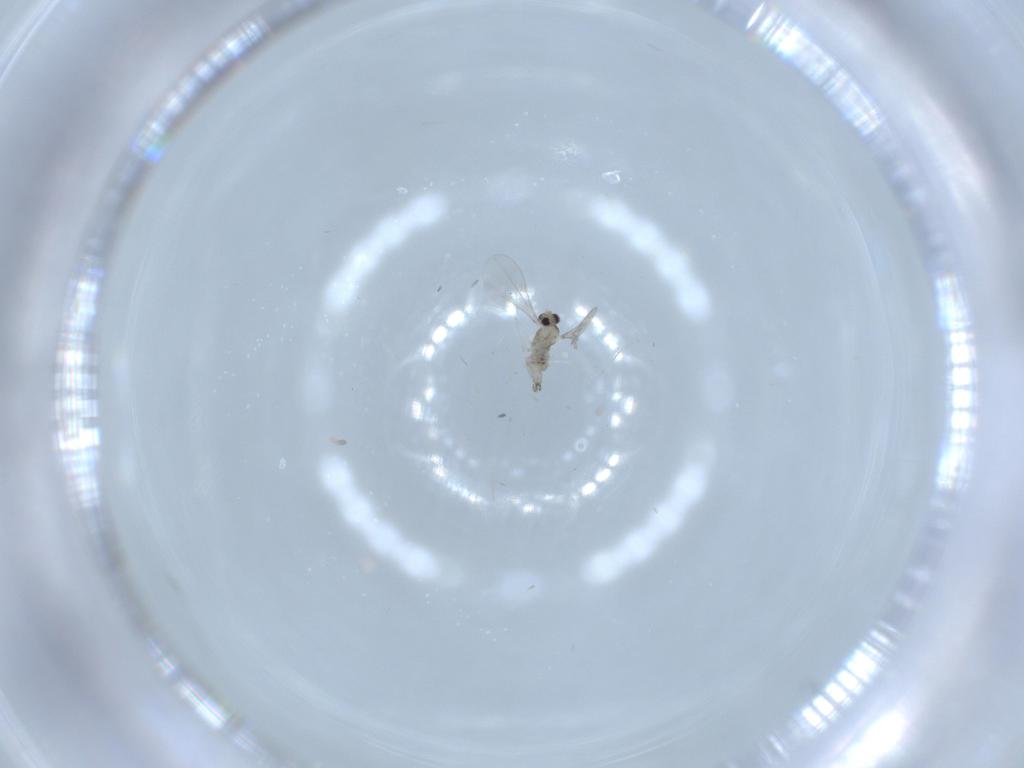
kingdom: Animalia
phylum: Arthropoda
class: Insecta
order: Diptera
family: Cecidomyiidae
